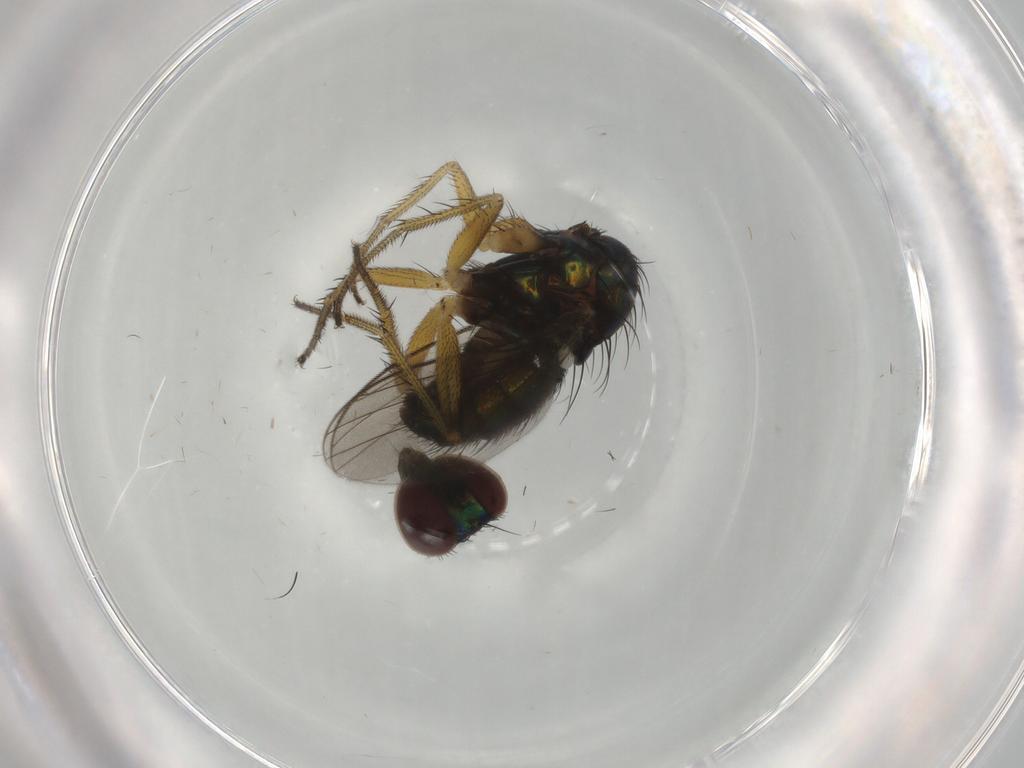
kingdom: Animalia
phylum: Arthropoda
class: Insecta
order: Diptera
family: Dolichopodidae
